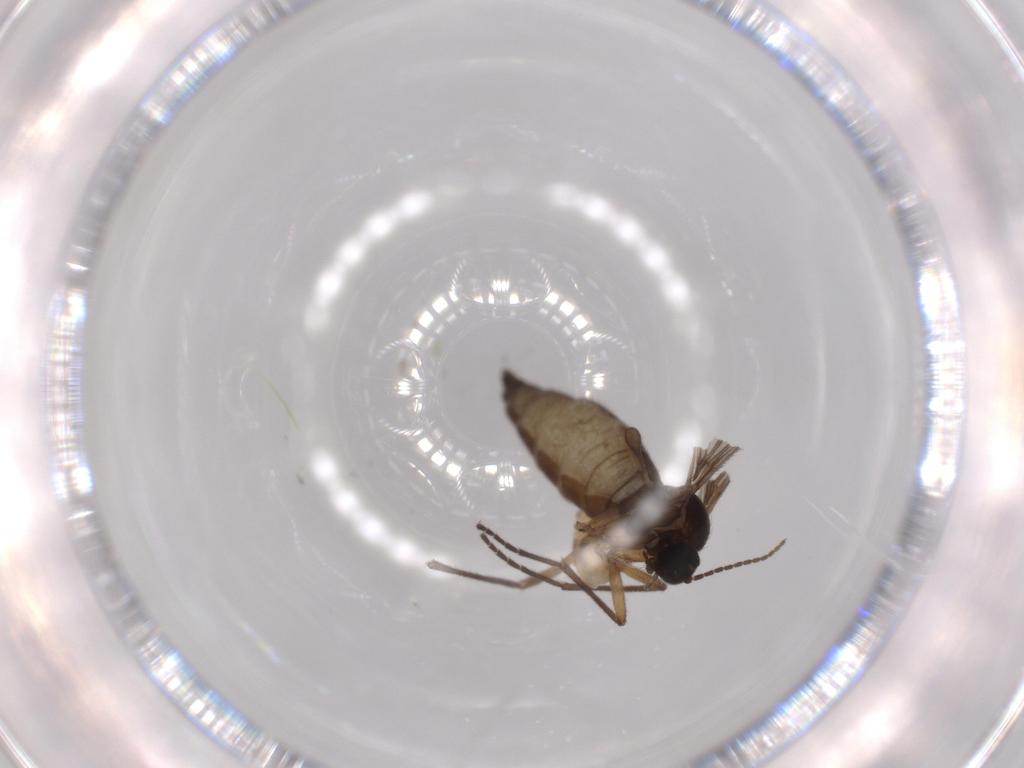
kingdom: Animalia
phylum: Arthropoda
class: Insecta
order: Diptera
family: Sciaridae
